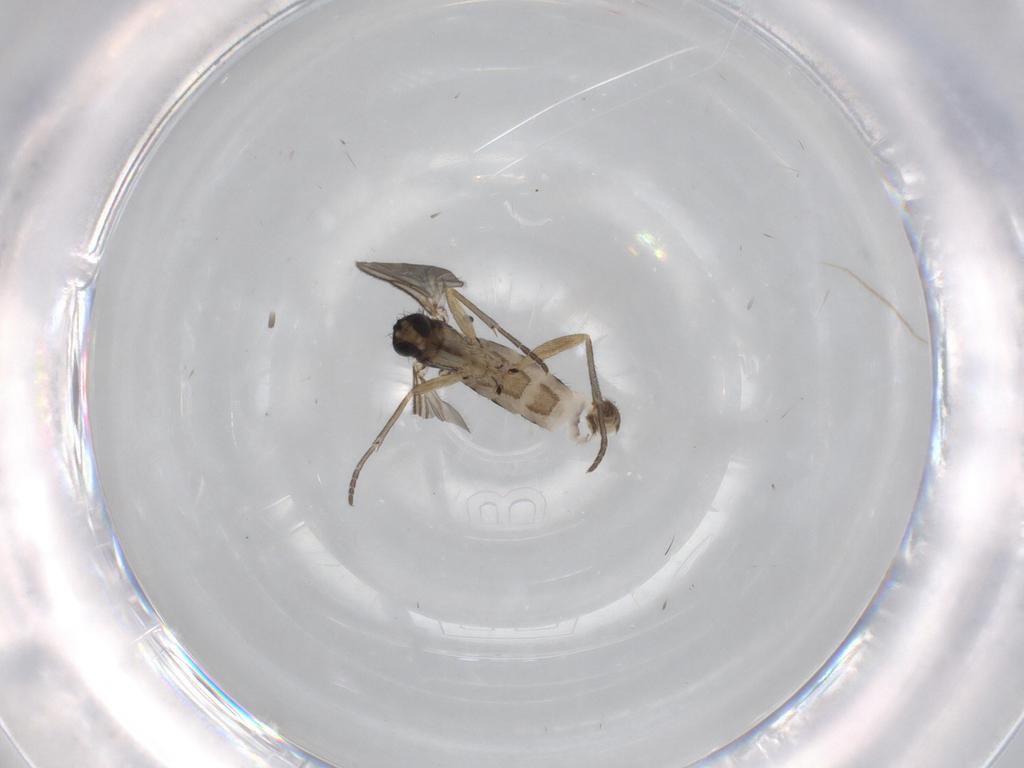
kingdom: Animalia
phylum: Arthropoda
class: Insecta
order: Diptera
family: Sciaridae
